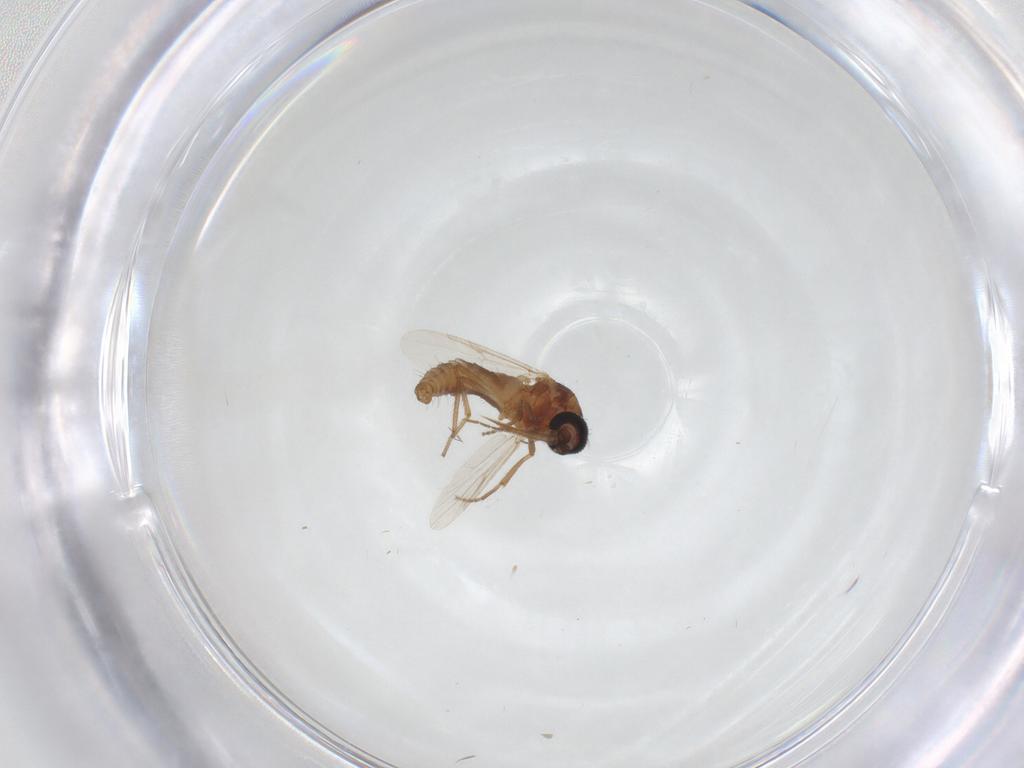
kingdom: Animalia
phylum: Arthropoda
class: Insecta
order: Diptera
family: Ceratopogonidae
